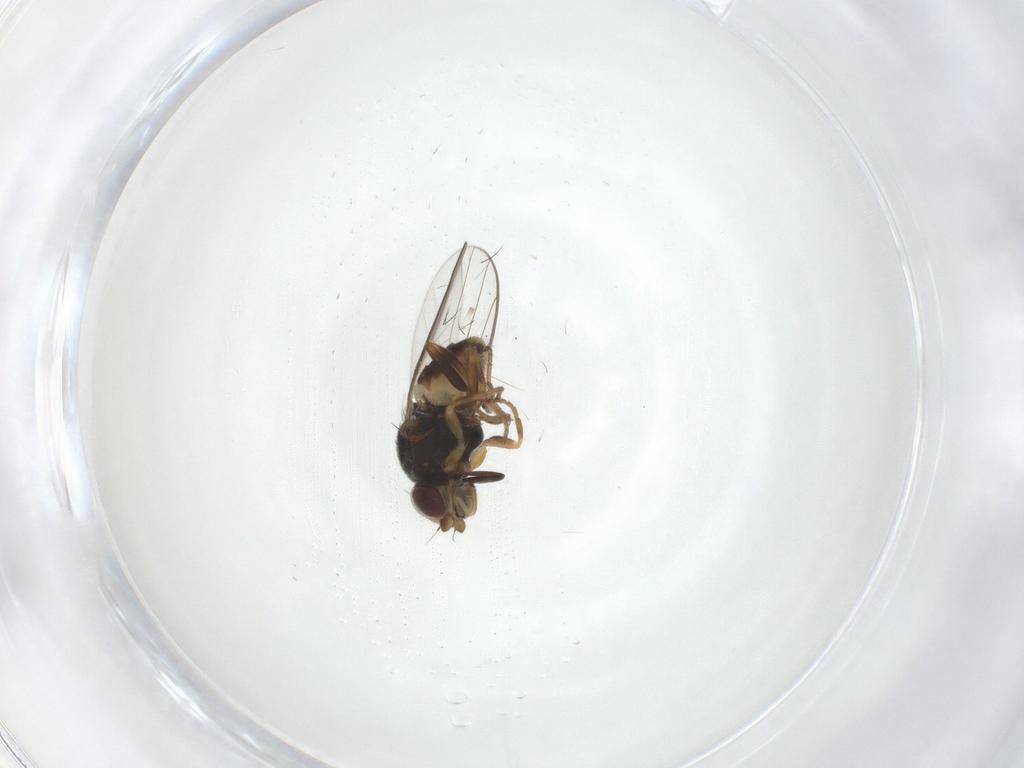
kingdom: Animalia
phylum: Arthropoda
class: Insecta
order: Diptera
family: Chloropidae
